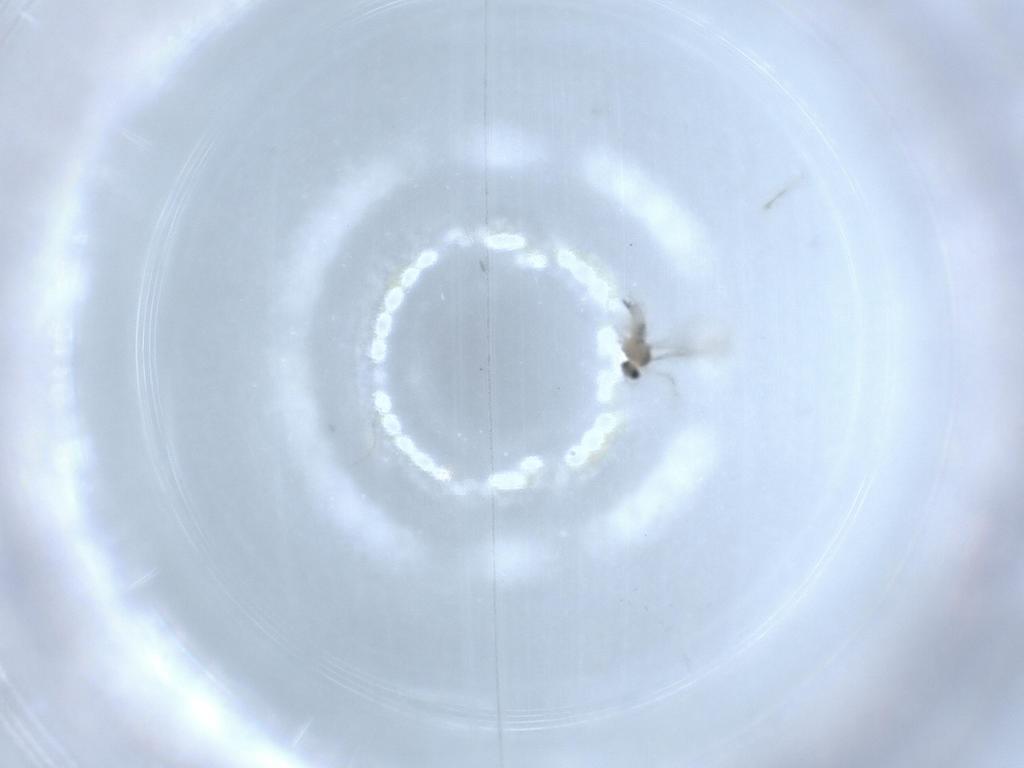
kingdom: Animalia
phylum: Arthropoda
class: Insecta
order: Diptera
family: Cecidomyiidae
